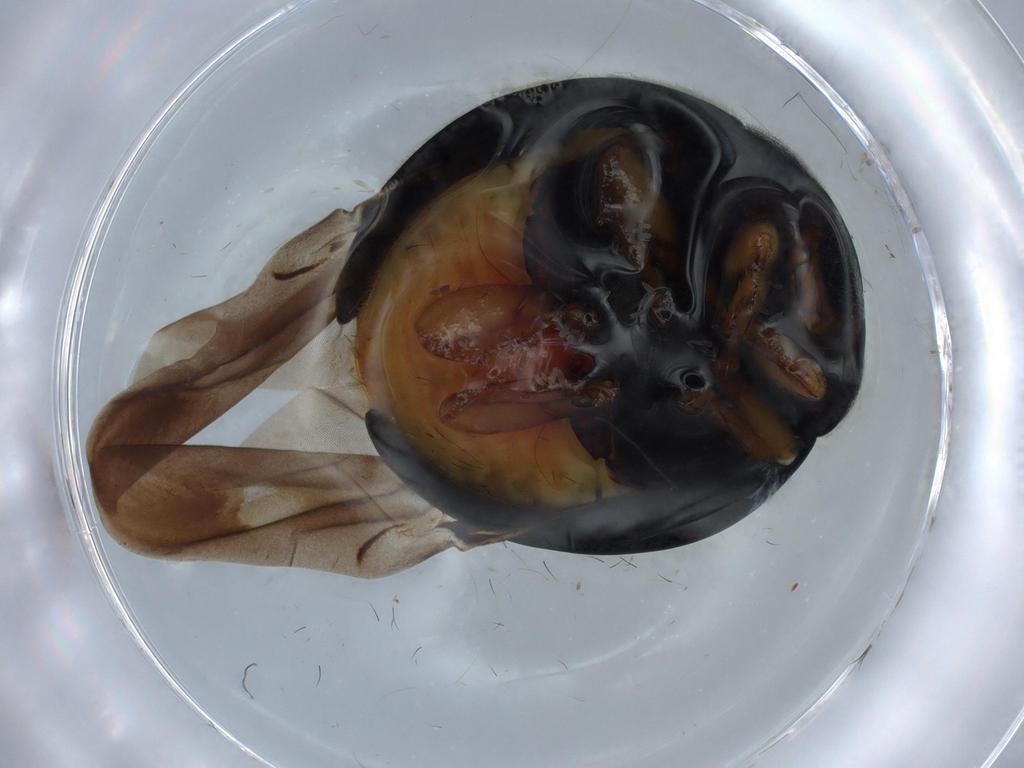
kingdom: Animalia
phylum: Arthropoda
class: Insecta
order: Coleoptera
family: Coccinellidae
